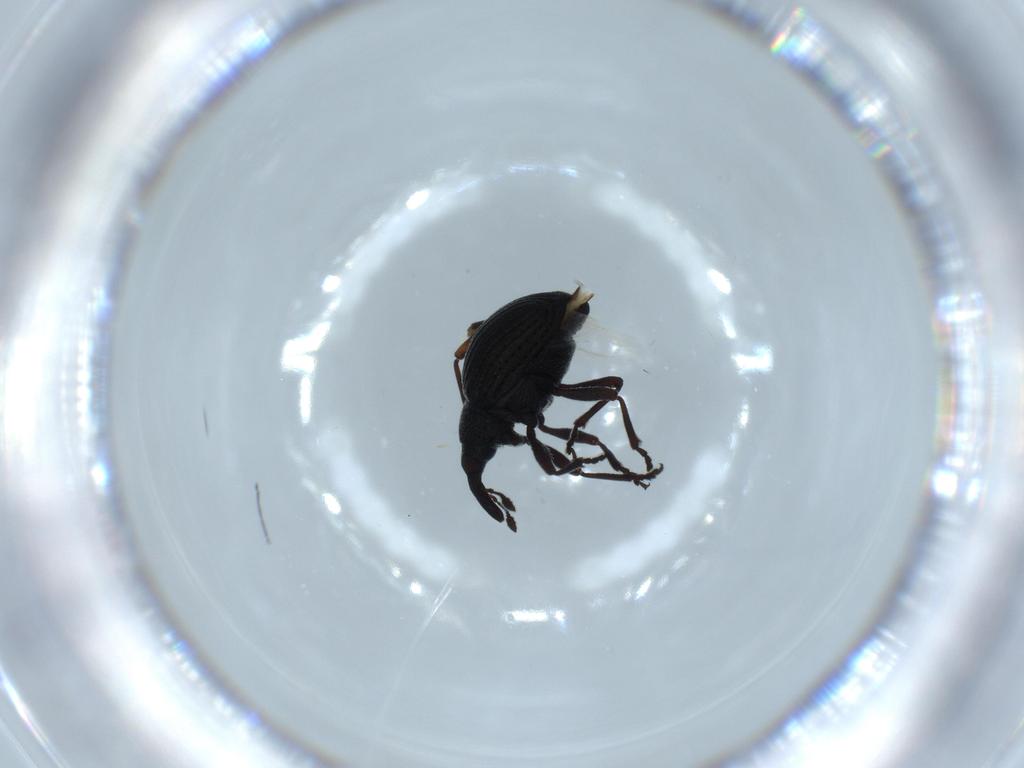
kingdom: Animalia
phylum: Arthropoda
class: Insecta
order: Coleoptera
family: Brentidae
